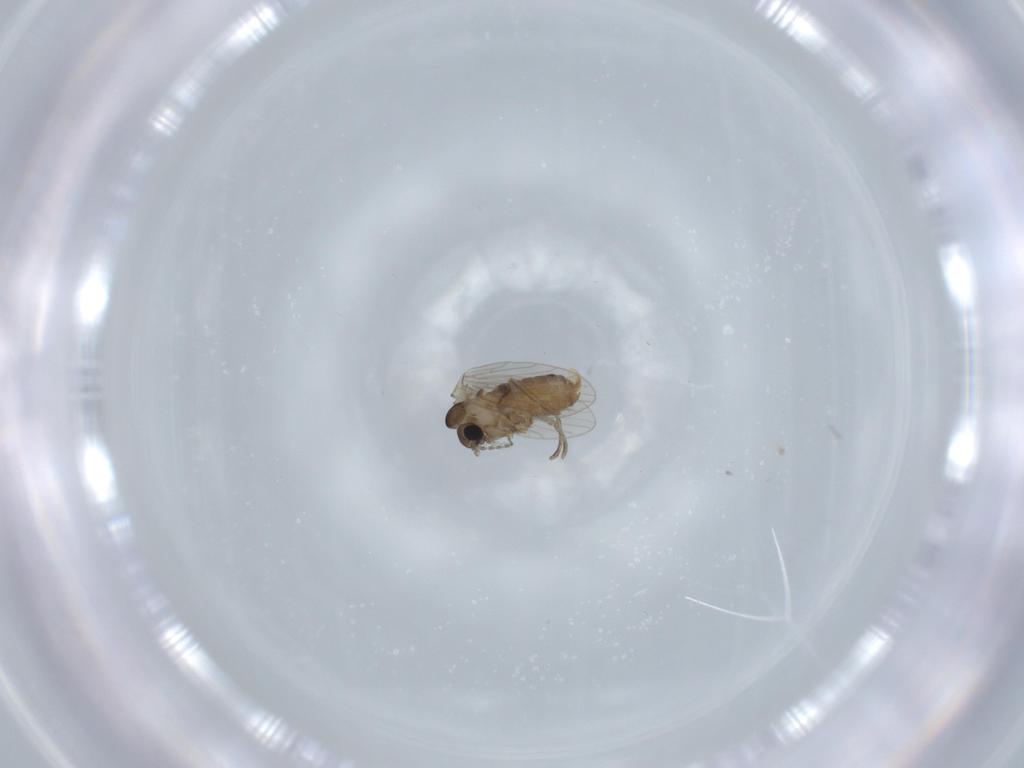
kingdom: Animalia
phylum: Arthropoda
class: Insecta
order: Diptera
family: Psychodidae
